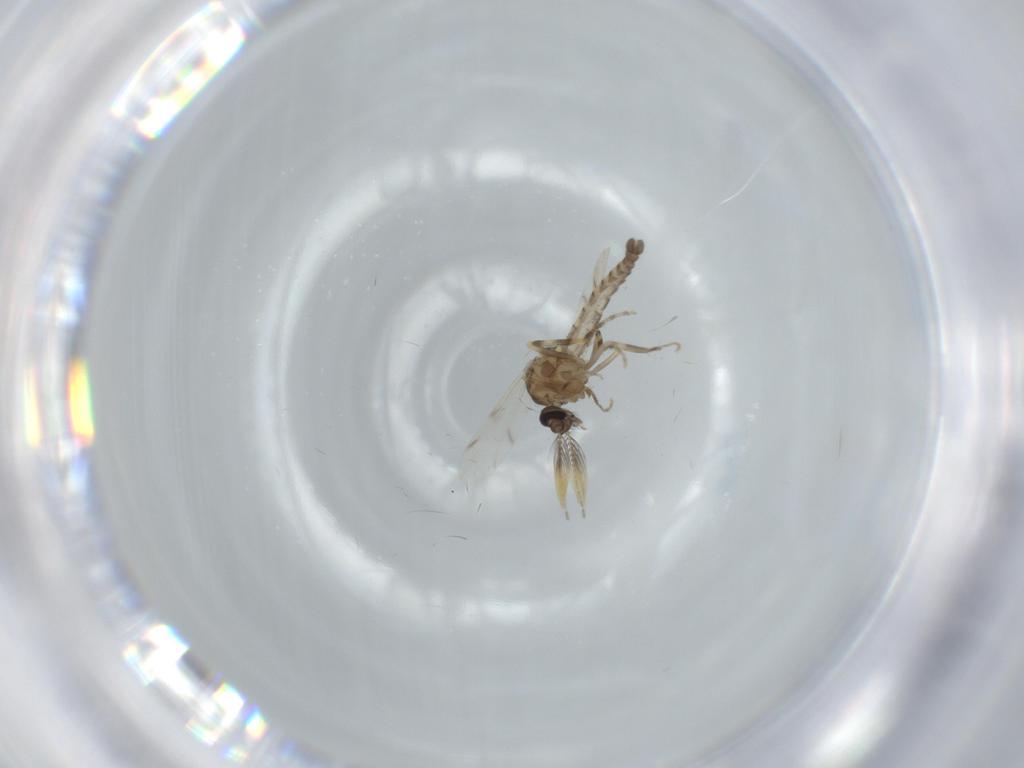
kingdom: Animalia
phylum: Arthropoda
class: Insecta
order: Diptera
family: Ceratopogonidae
